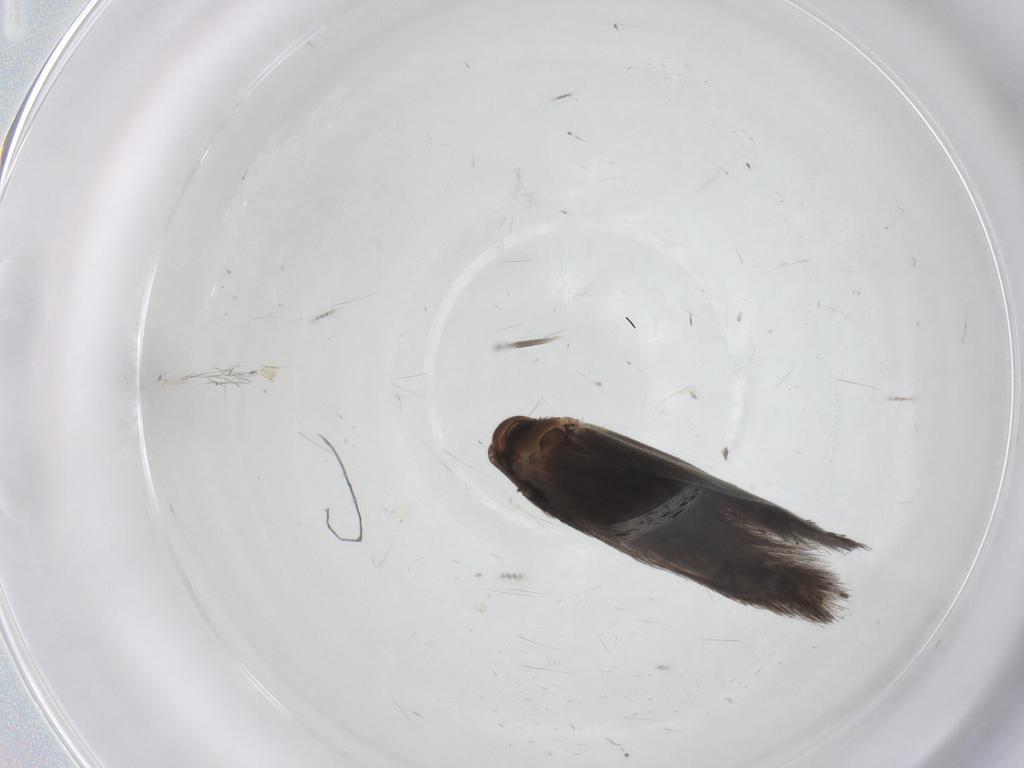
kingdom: Animalia
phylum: Arthropoda
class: Insecta
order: Lepidoptera
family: Elachistidae
